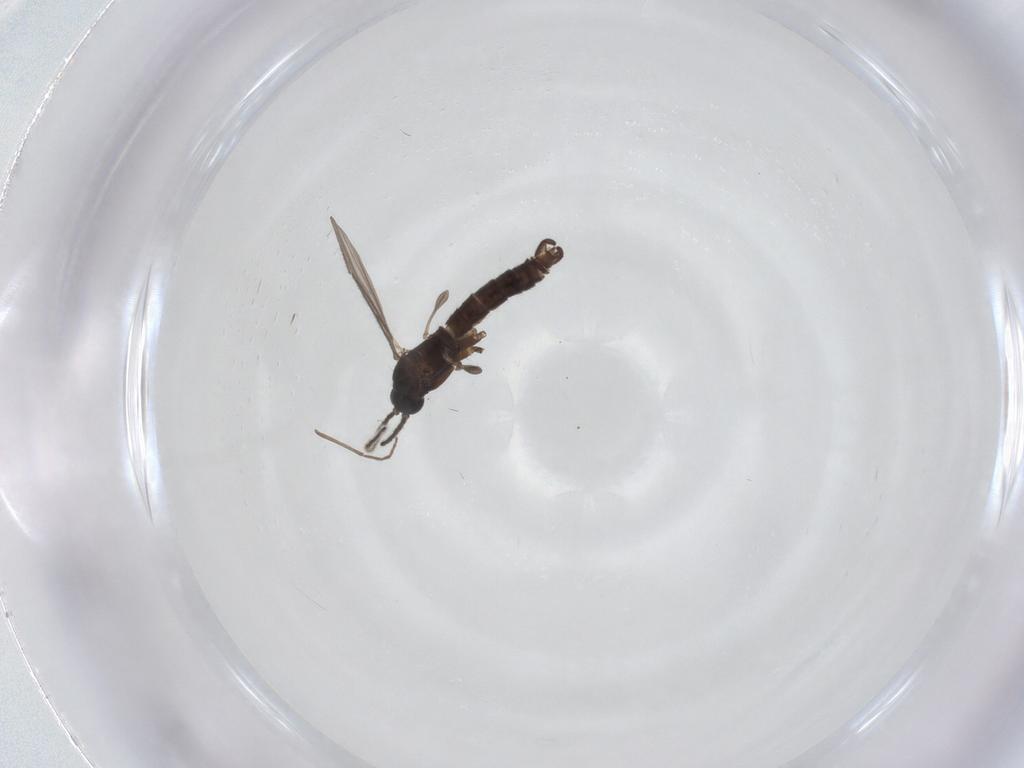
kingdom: Animalia
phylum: Arthropoda
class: Insecta
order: Diptera
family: Sciaridae
